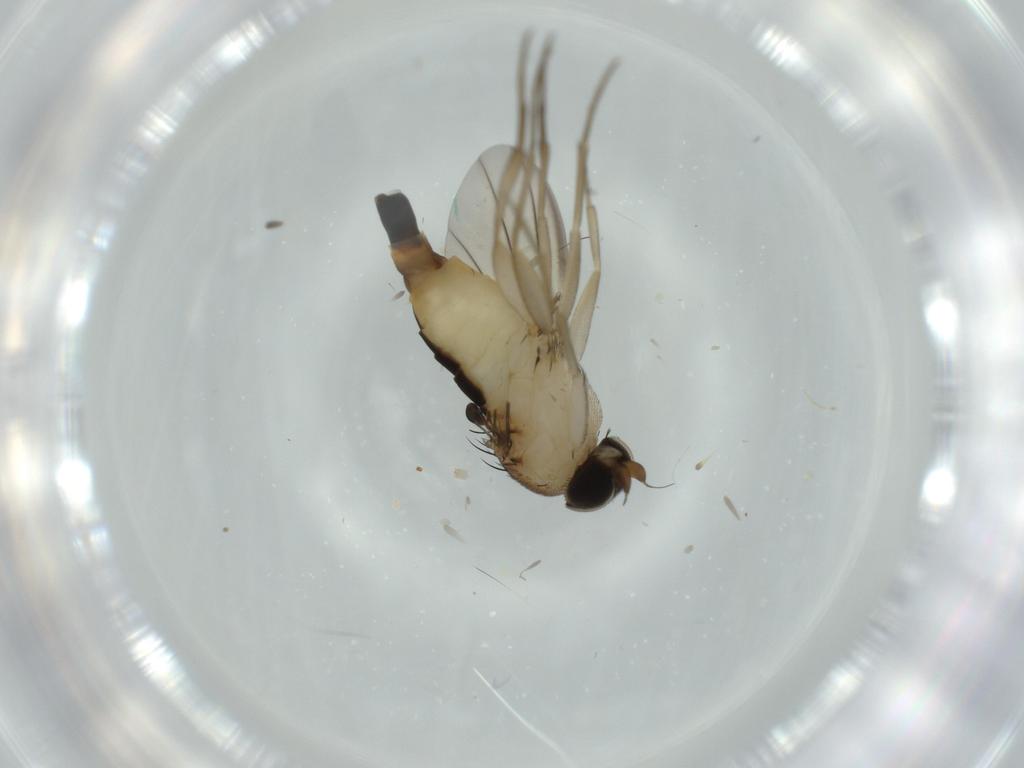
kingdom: Animalia
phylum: Arthropoda
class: Insecta
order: Diptera
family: Phoridae
